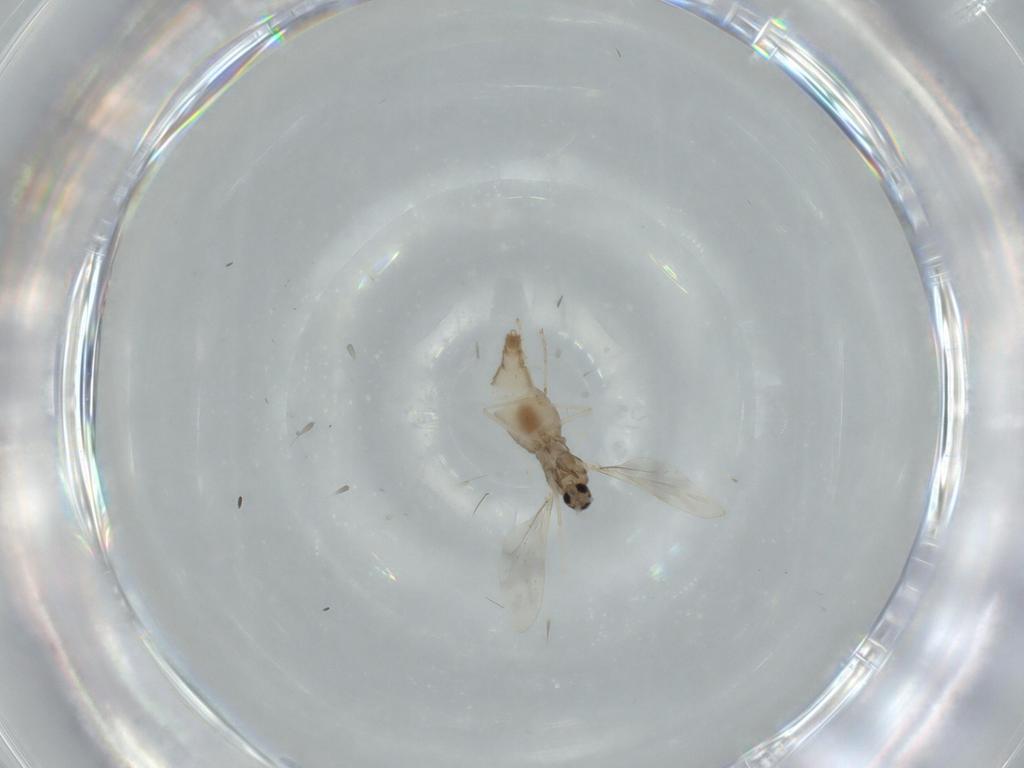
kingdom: Animalia
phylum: Arthropoda
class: Insecta
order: Diptera
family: Cecidomyiidae
